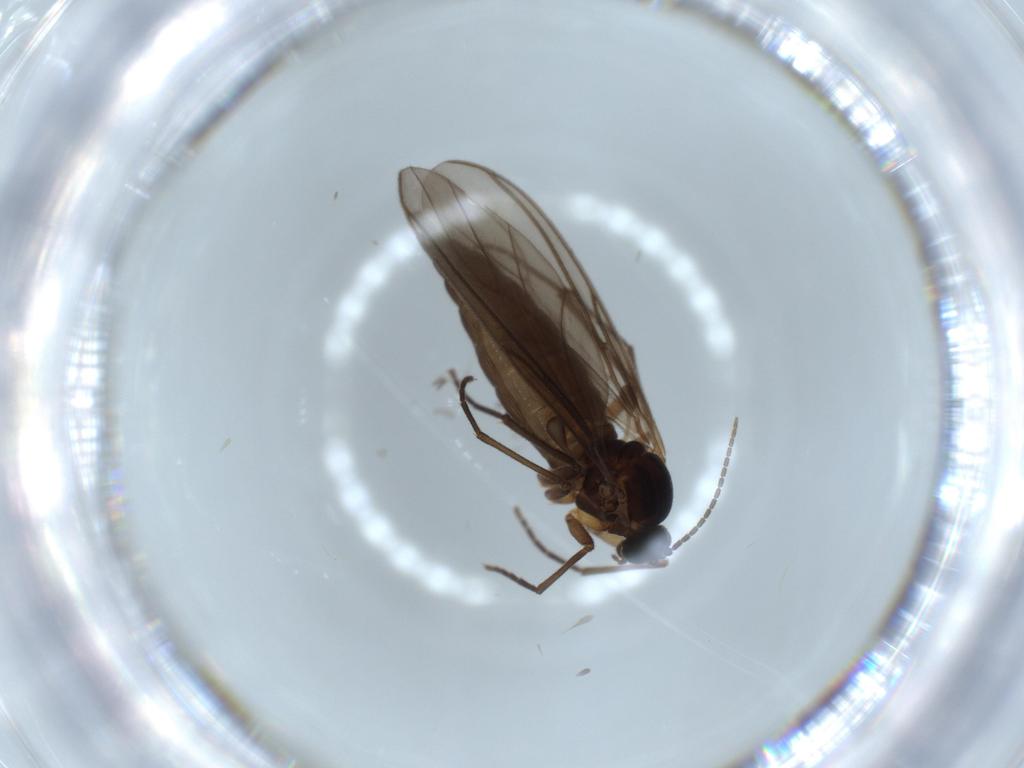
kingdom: Animalia
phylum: Arthropoda
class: Insecta
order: Diptera
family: Sciaridae
